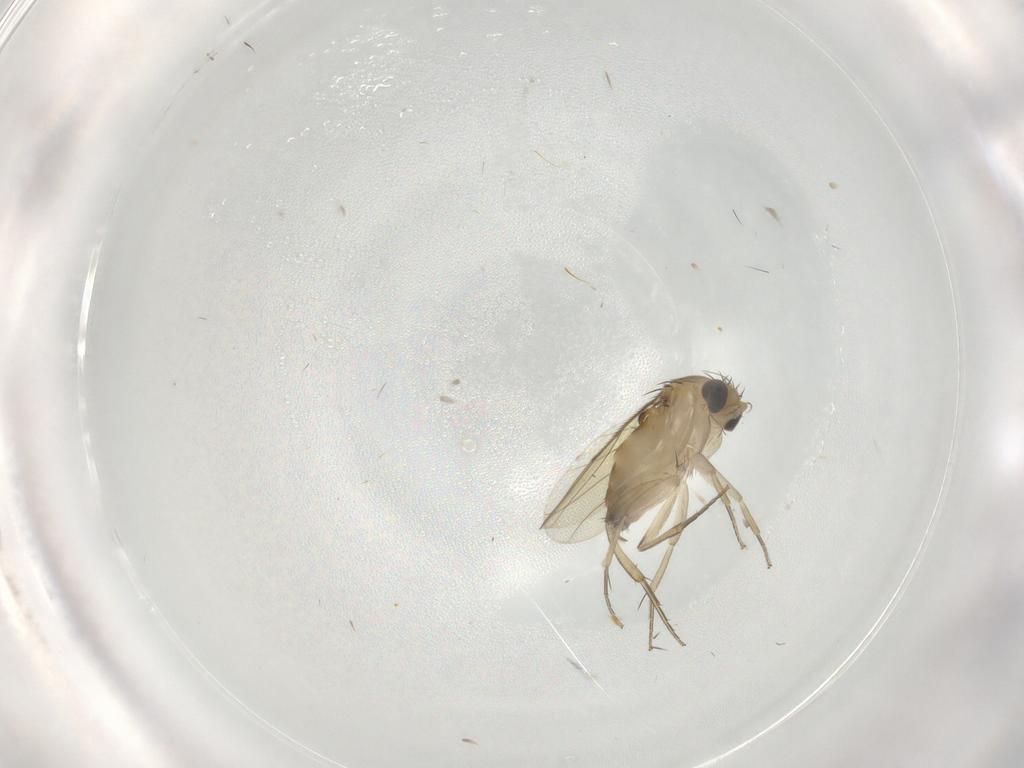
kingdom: Animalia
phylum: Arthropoda
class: Insecta
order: Diptera
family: Phoridae
